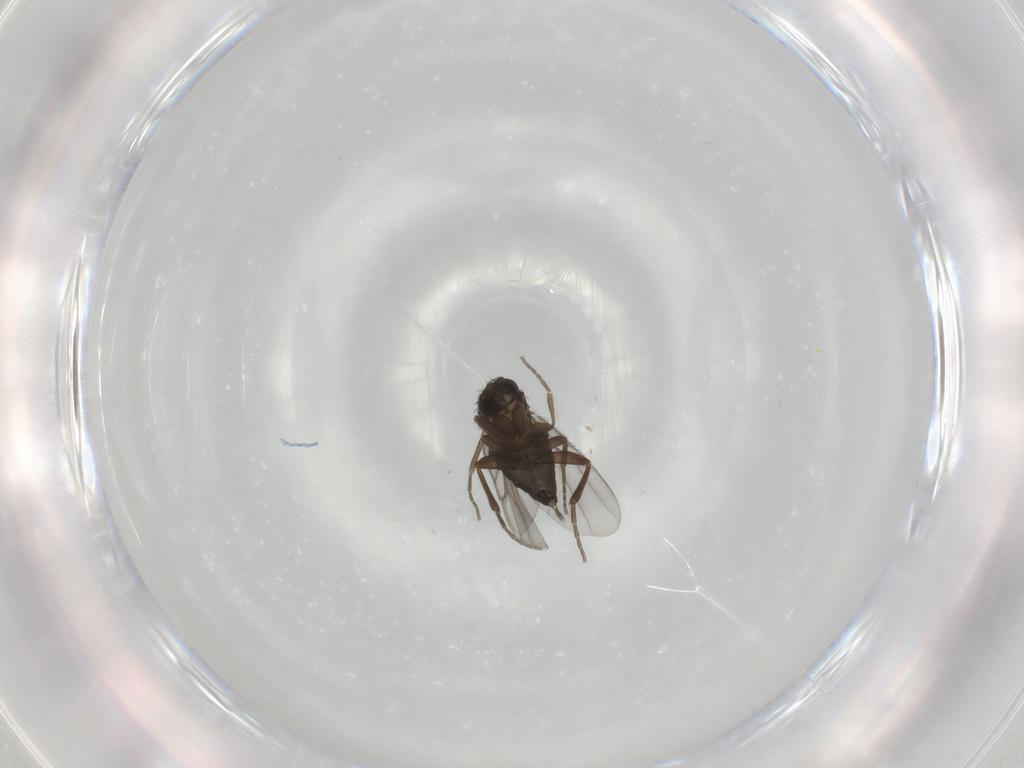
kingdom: Animalia
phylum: Arthropoda
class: Insecta
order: Diptera
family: Phoridae
